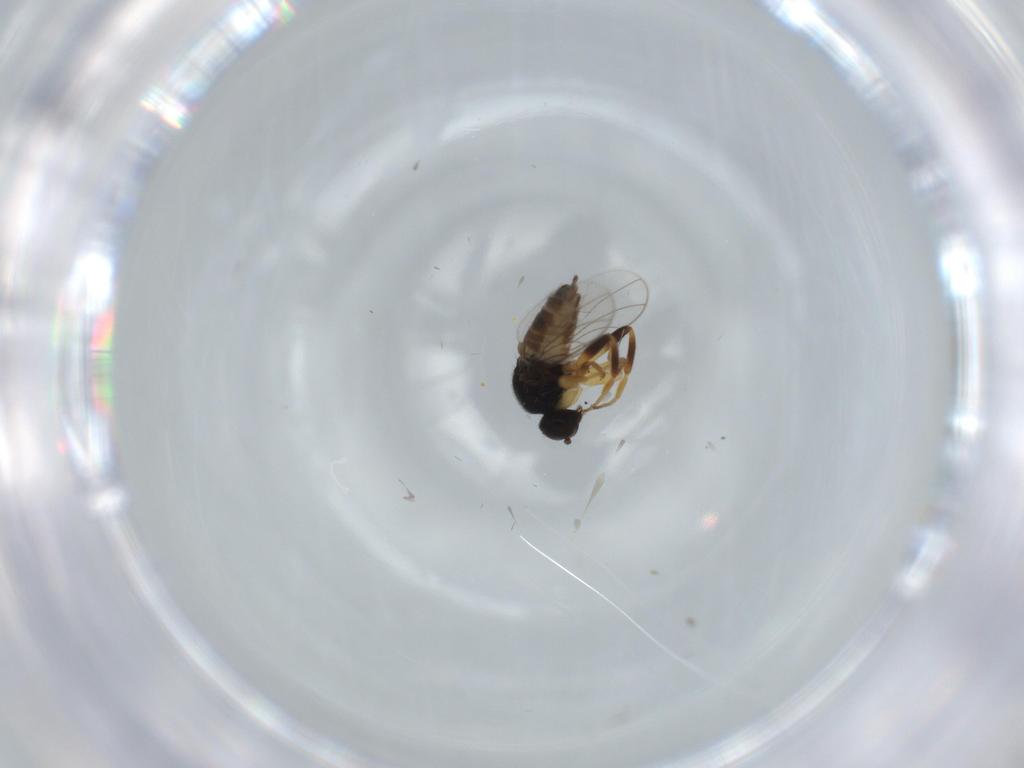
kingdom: Animalia
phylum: Arthropoda
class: Insecta
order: Diptera
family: Hybotidae
